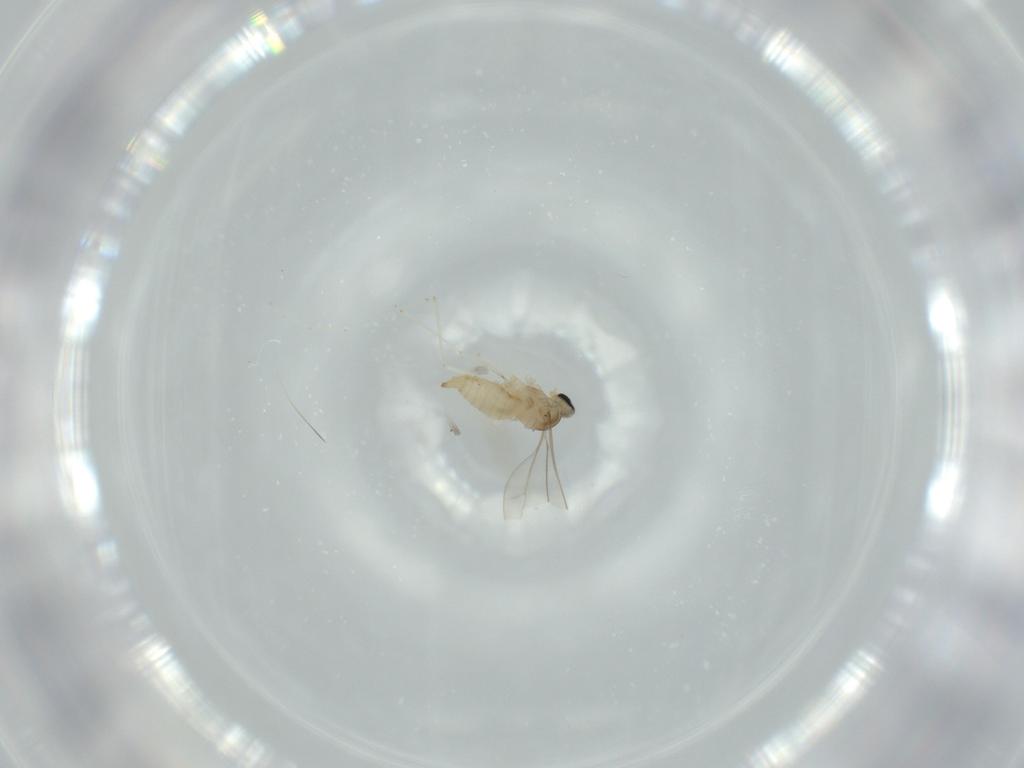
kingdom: Animalia
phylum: Arthropoda
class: Insecta
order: Diptera
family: Cecidomyiidae
